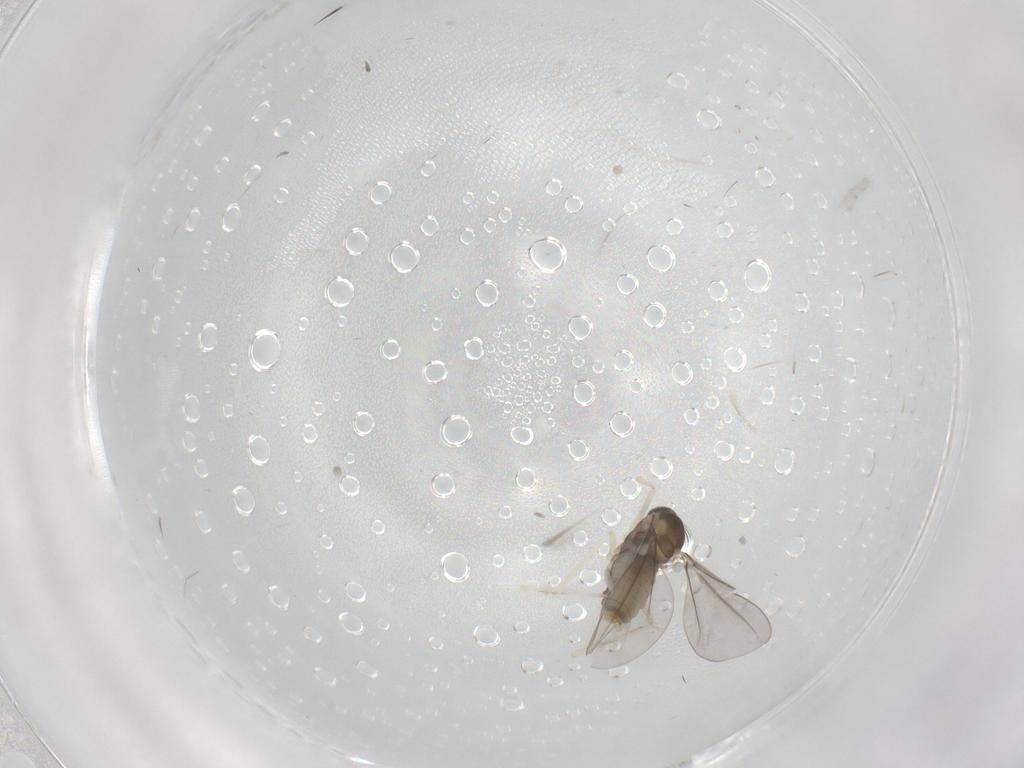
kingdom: Animalia
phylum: Arthropoda
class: Insecta
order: Diptera
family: Cecidomyiidae
